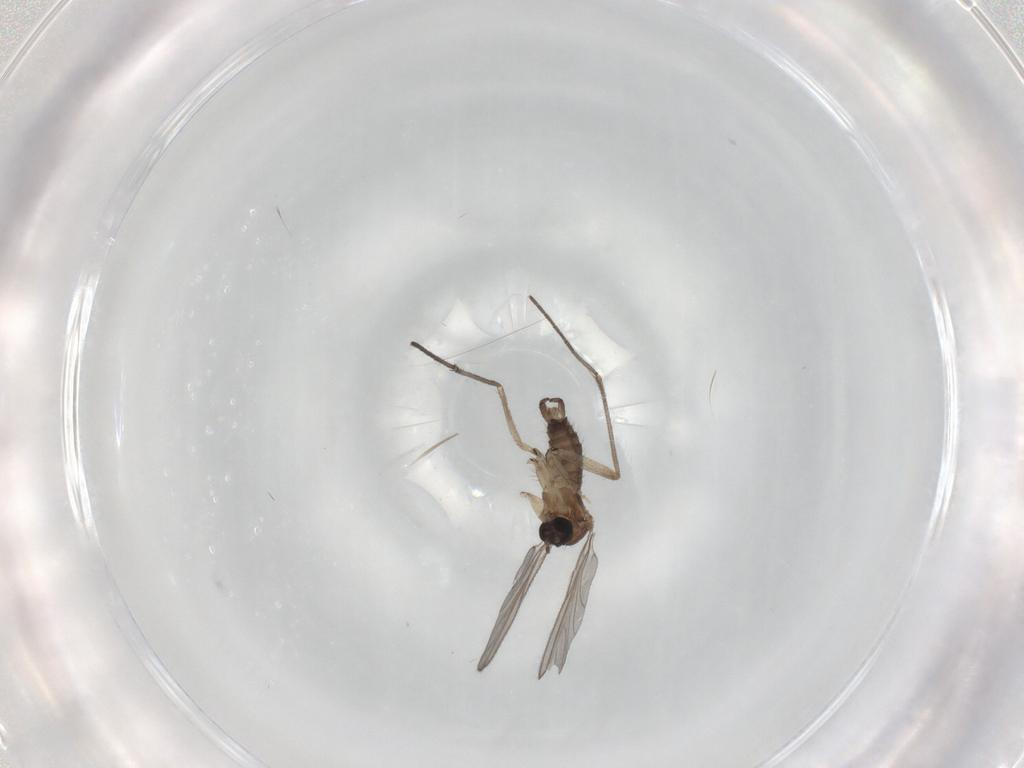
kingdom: Animalia
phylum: Arthropoda
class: Insecta
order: Diptera
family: Chironomidae
